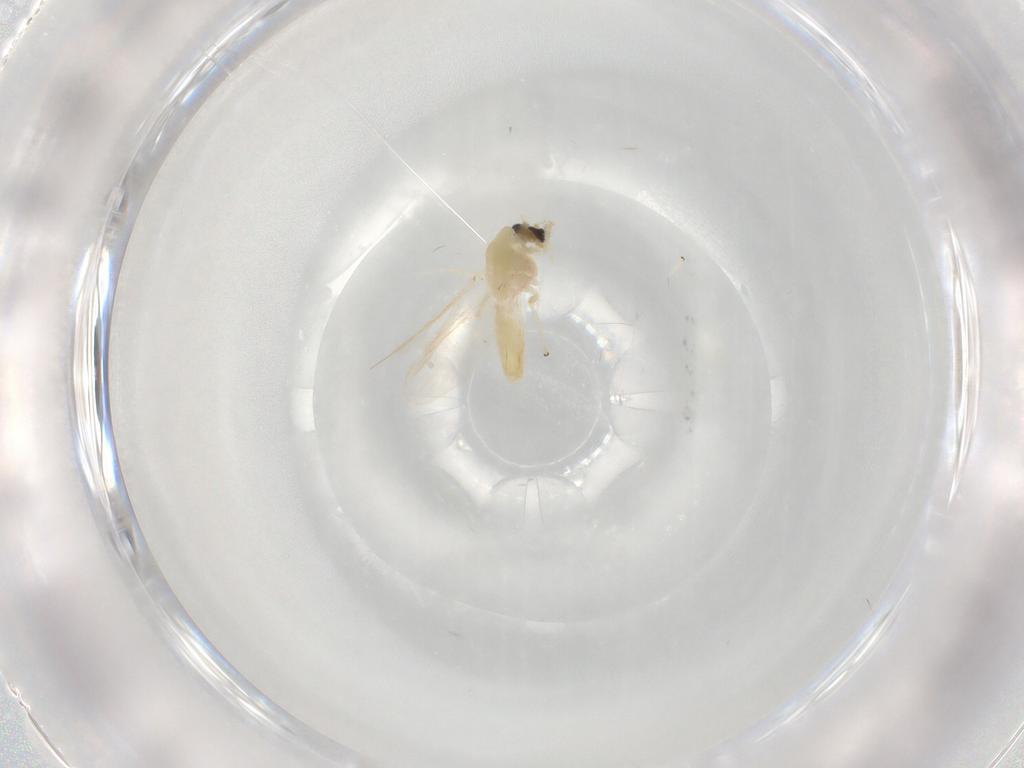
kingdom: Animalia
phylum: Arthropoda
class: Insecta
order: Diptera
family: Chironomidae
